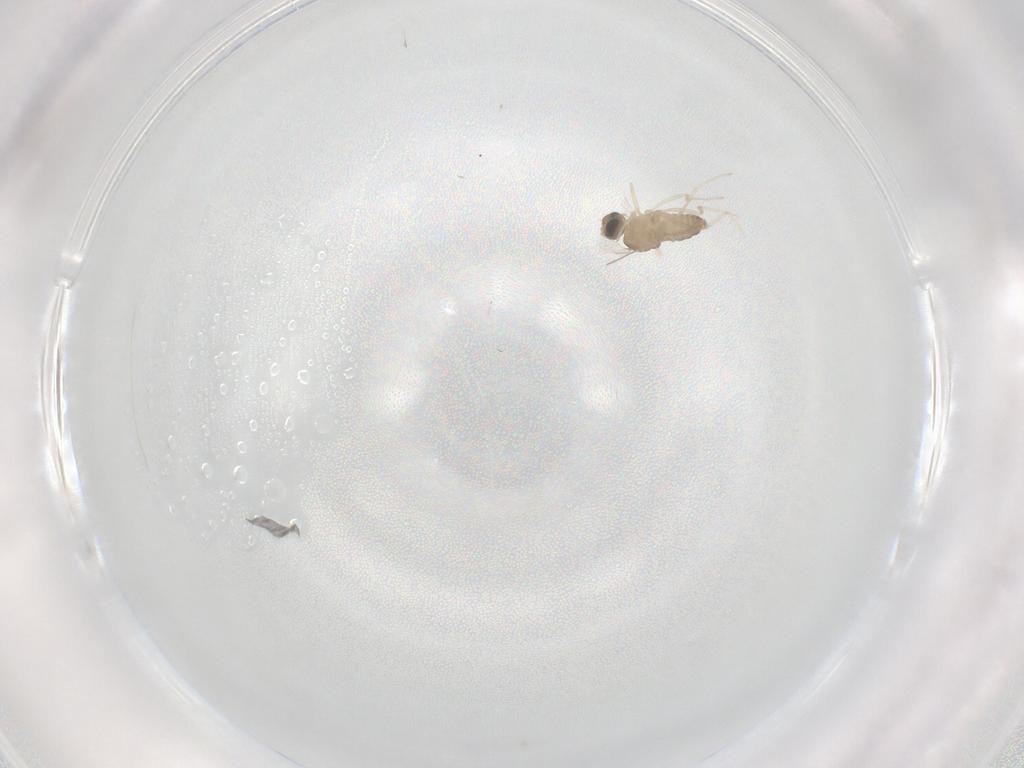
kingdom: Animalia
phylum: Arthropoda
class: Insecta
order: Diptera
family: Cecidomyiidae
